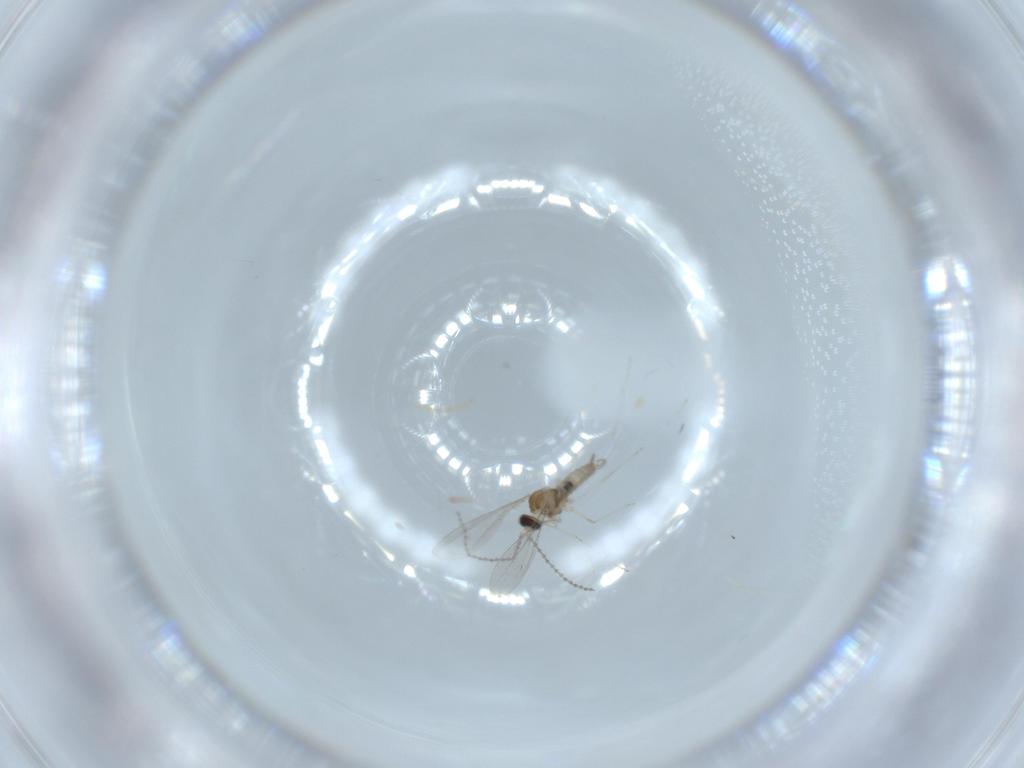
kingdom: Animalia
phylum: Arthropoda
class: Insecta
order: Diptera
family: Cecidomyiidae
